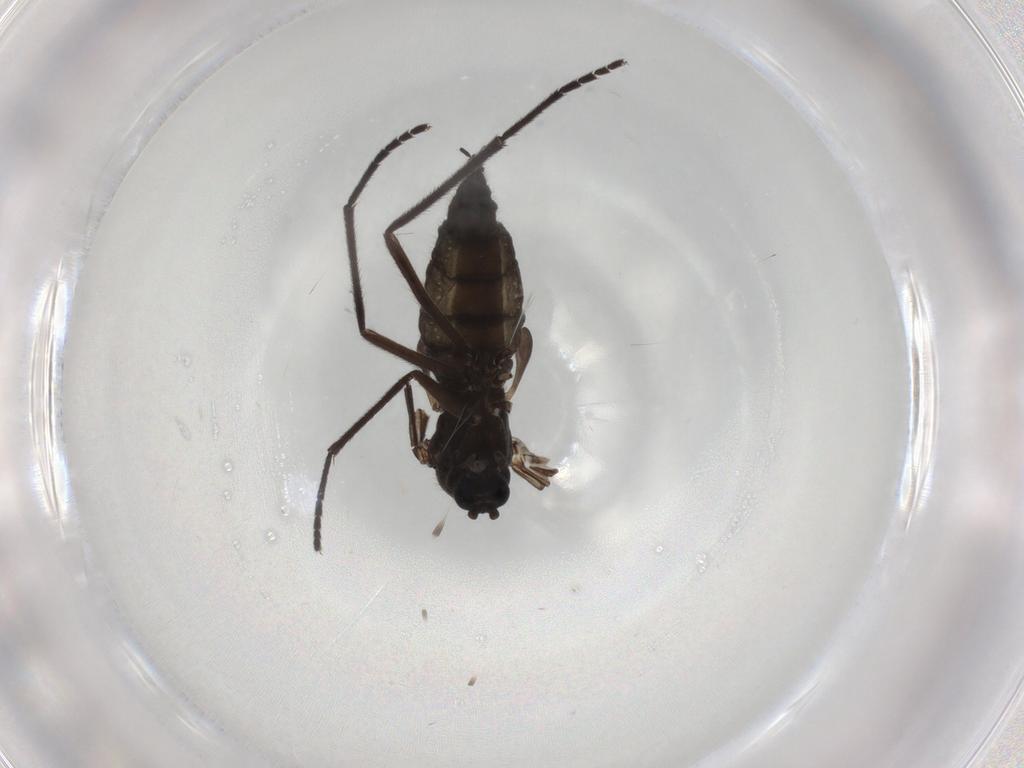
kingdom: Animalia
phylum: Arthropoda
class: Insecta
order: Diptera
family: Sciaridae
